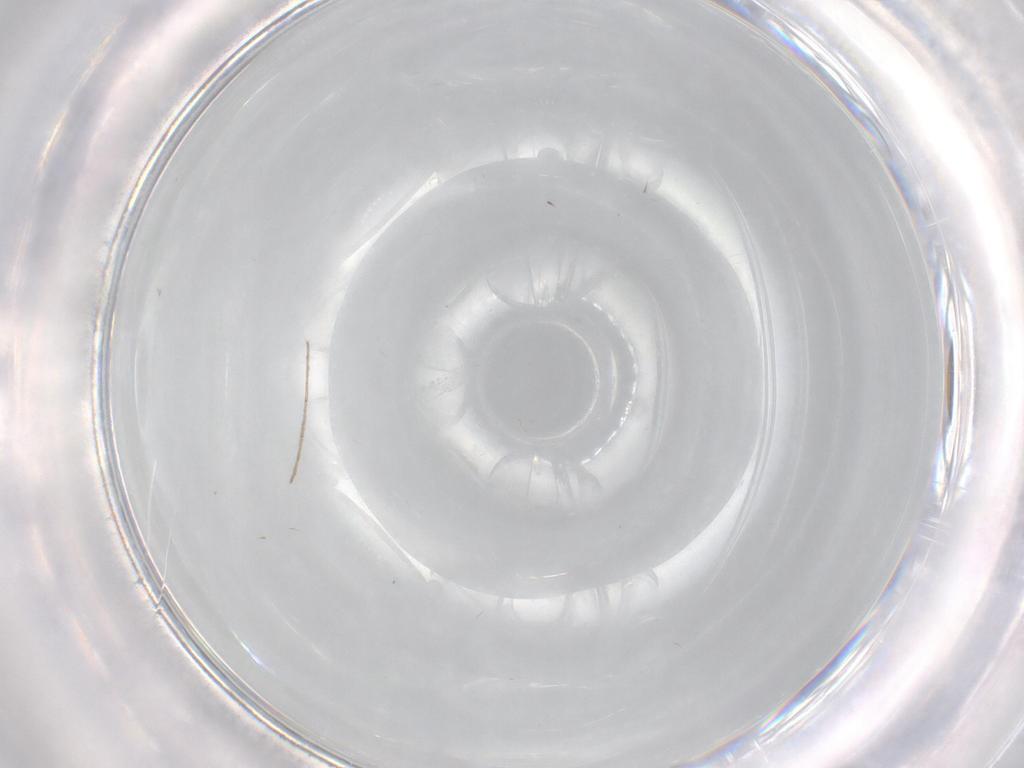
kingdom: Animalia
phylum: Arthropoda
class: Insecta
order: Diptera
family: Cecidomyiidae
